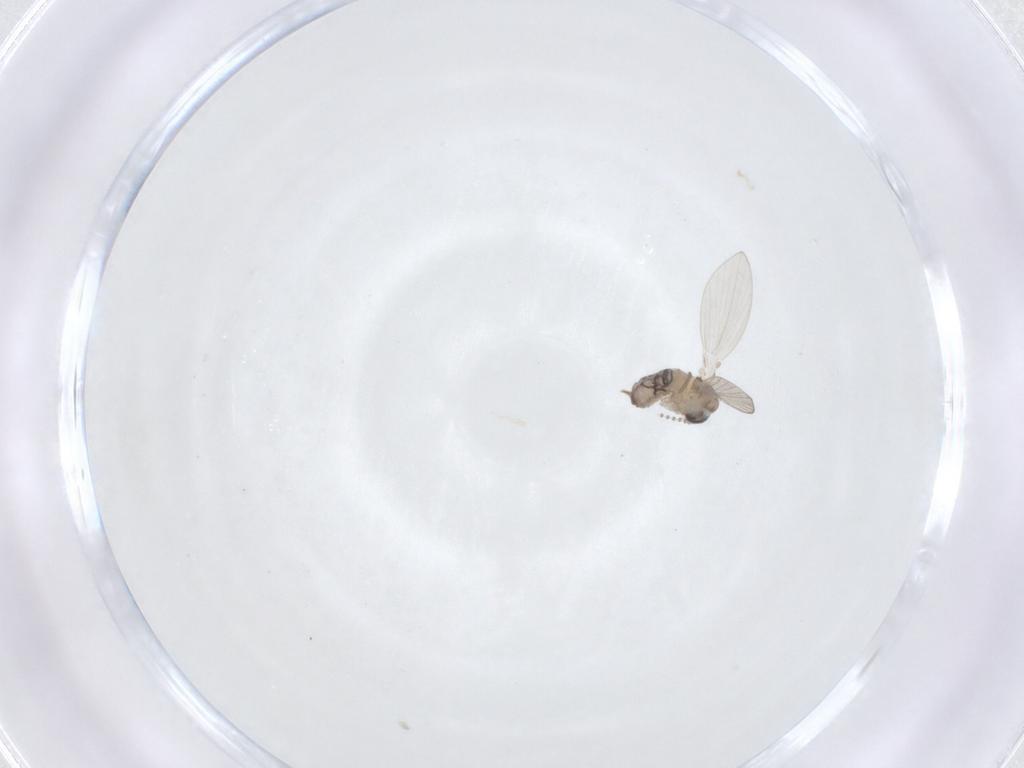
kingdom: Animalia
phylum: Arthropoda
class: Insecta
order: Diptera
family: Psychodidae
